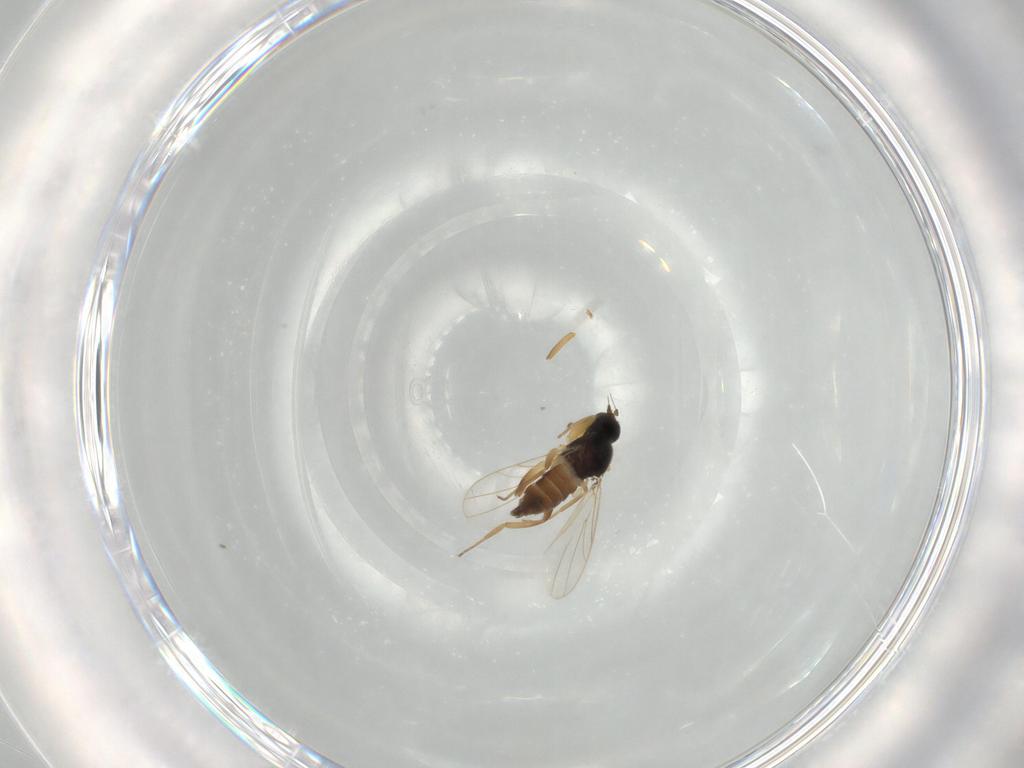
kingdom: Animalia
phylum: Arthropoda
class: Insecta
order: Diptera
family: Hybotidae
